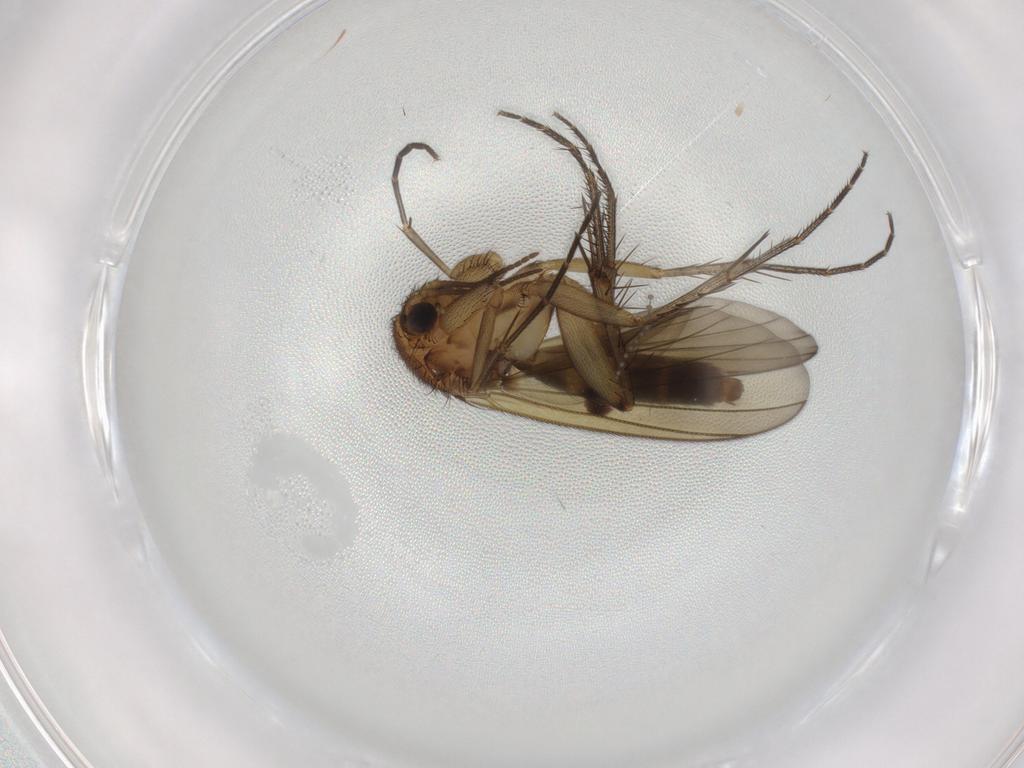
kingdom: Animalia
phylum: Arthropoda
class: Insecta
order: Diptera
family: Mycetophilidae
